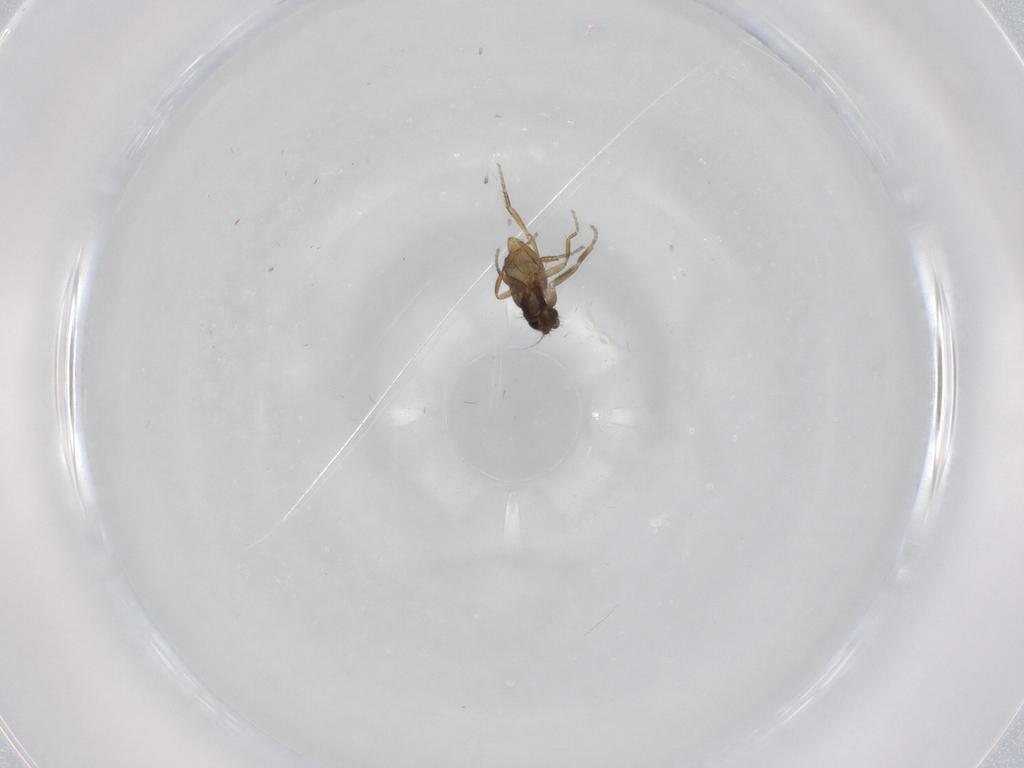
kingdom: Animalia
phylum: Arthropoda
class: Insecta
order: Diptera
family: Phoridae
